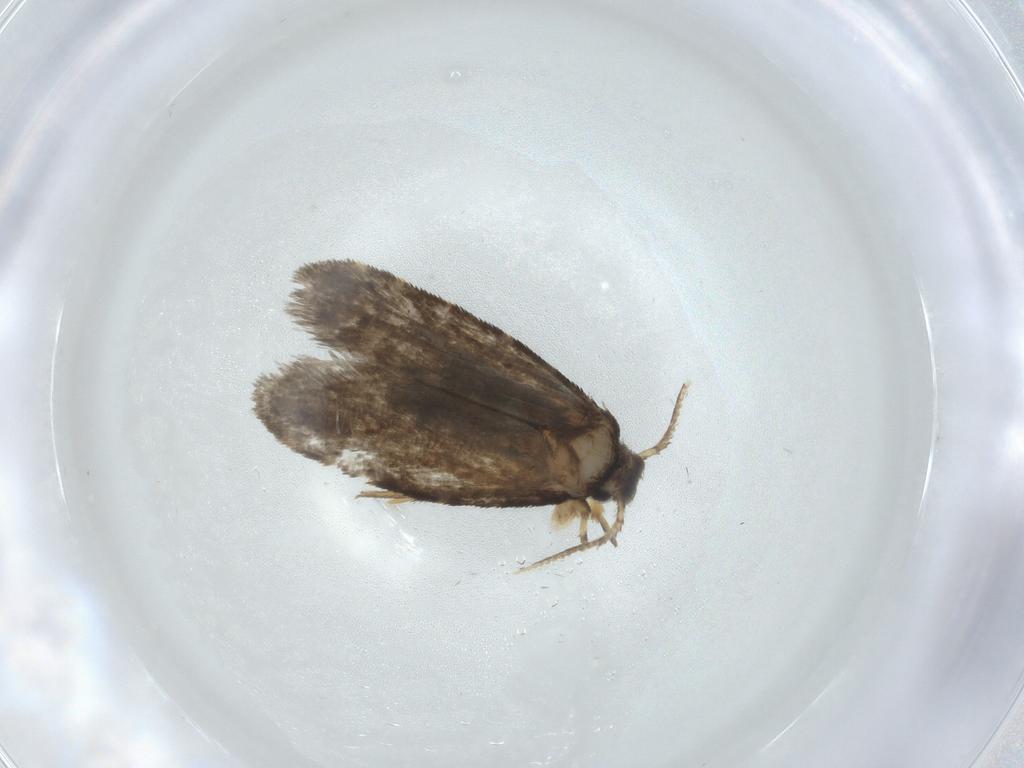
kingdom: Animalia
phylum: Arthropoda
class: Insecta
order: Lepidoptera
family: Psychidae
